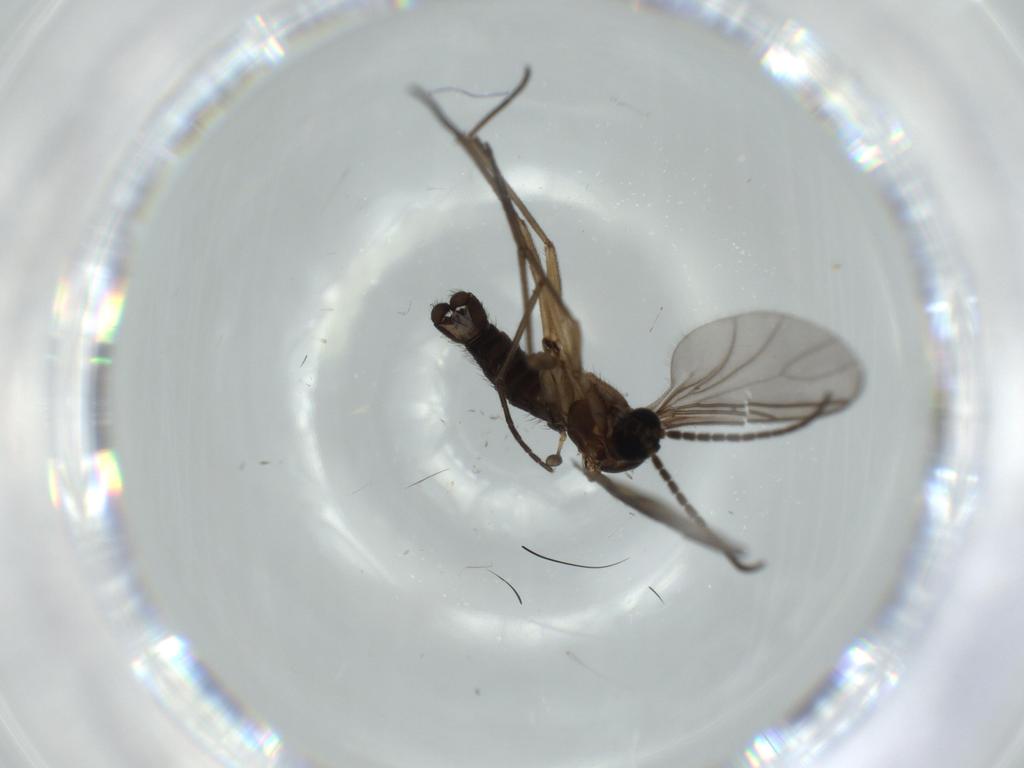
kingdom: Animalia
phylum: Arthropoda
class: Insecta
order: Diptera
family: Sciaridae
